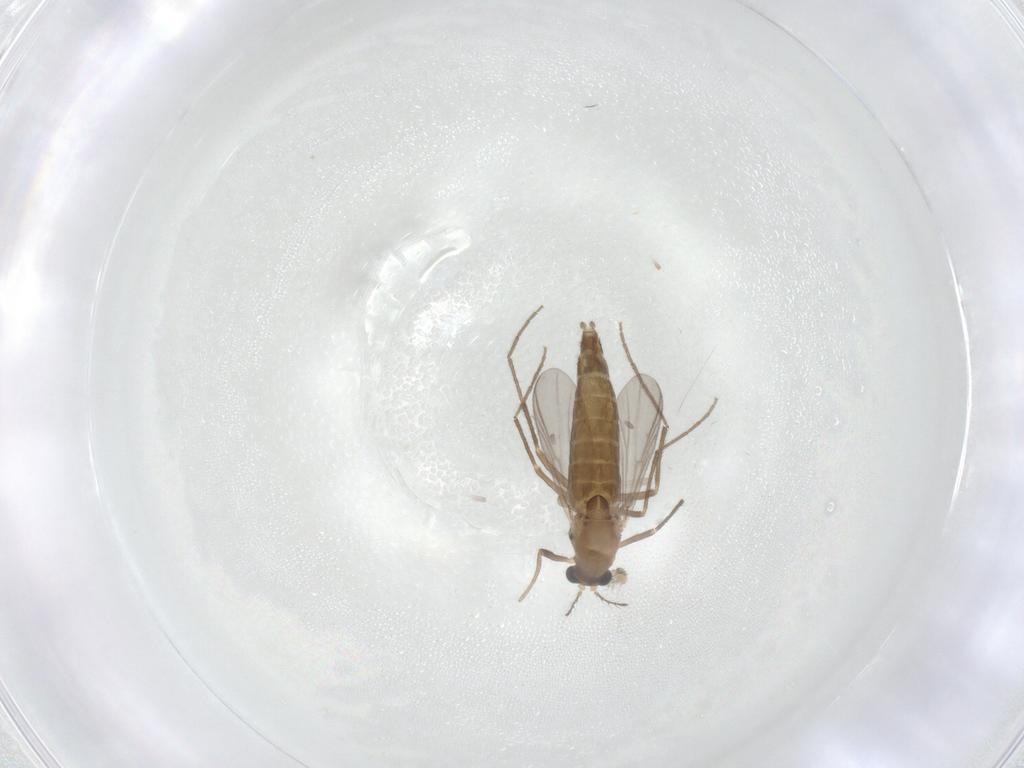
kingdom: Animalia
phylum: Arthropoda
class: Insecta
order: Diptera
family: Chironomidae
